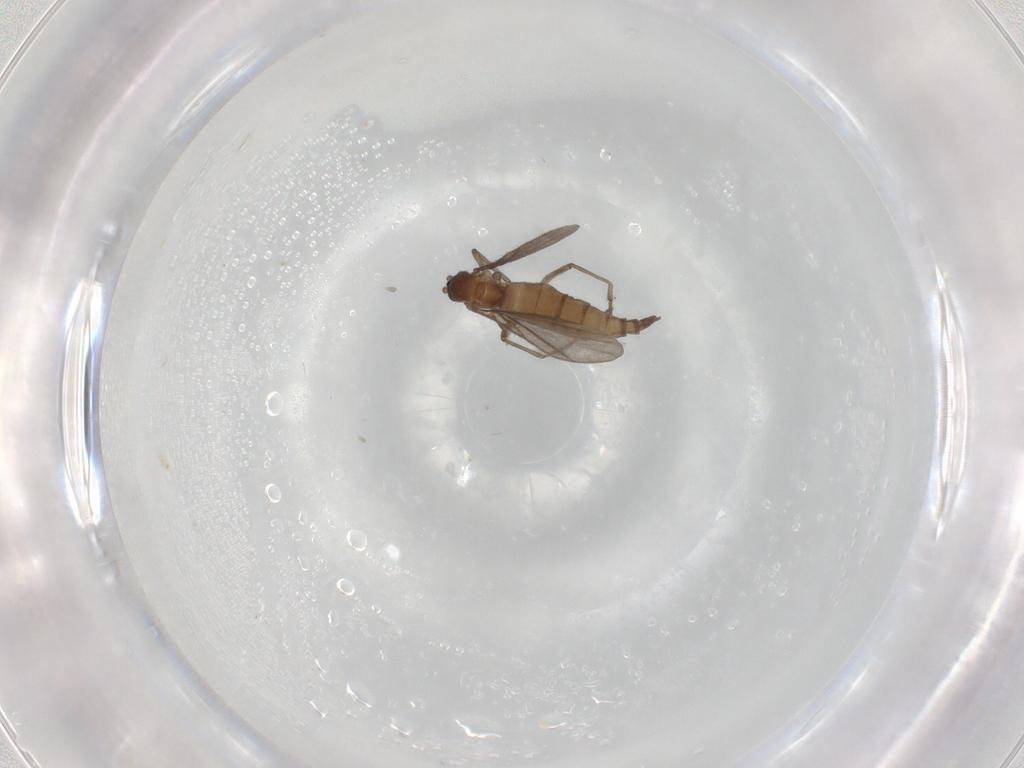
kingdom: Animalia
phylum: Arthropoda
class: Insecta
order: Diptera
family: Sciaridae
